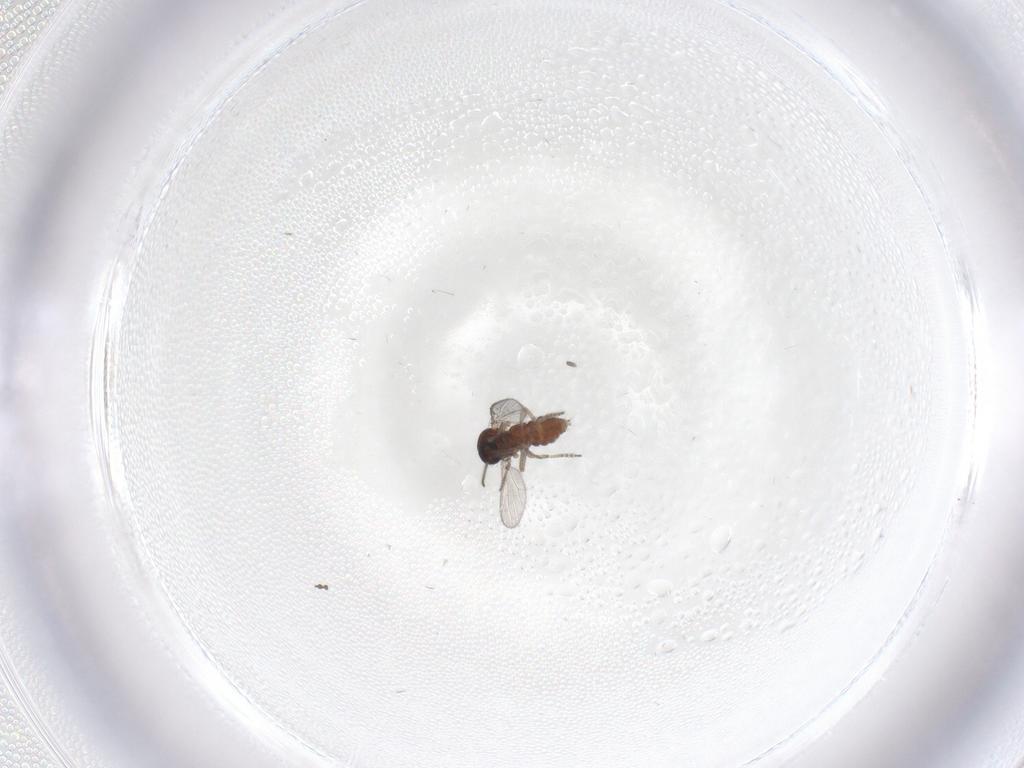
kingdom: Animalia
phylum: Arthropoda
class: Insecta
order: Diptera
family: Ceratopogonidae
